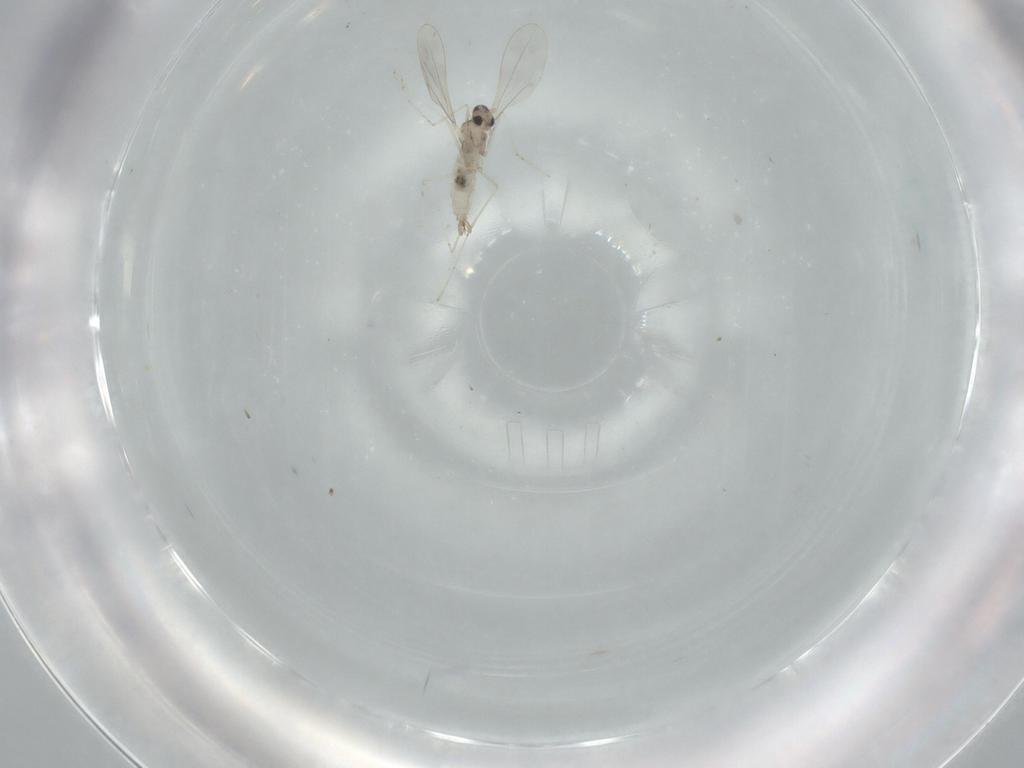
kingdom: Animalia
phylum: Arthropoda
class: Insecta
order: Diptera
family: Cecidomyiidae
